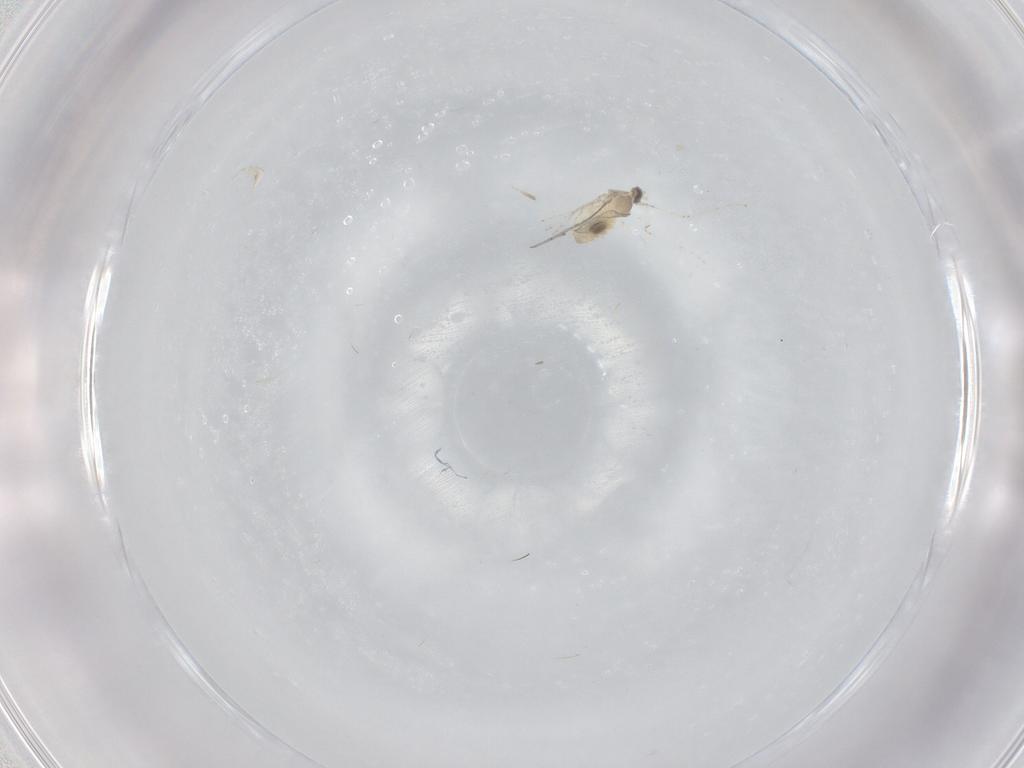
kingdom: Animalia
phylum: Arthropoda
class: Insecta
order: Diptera
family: Cecidomyiidae
